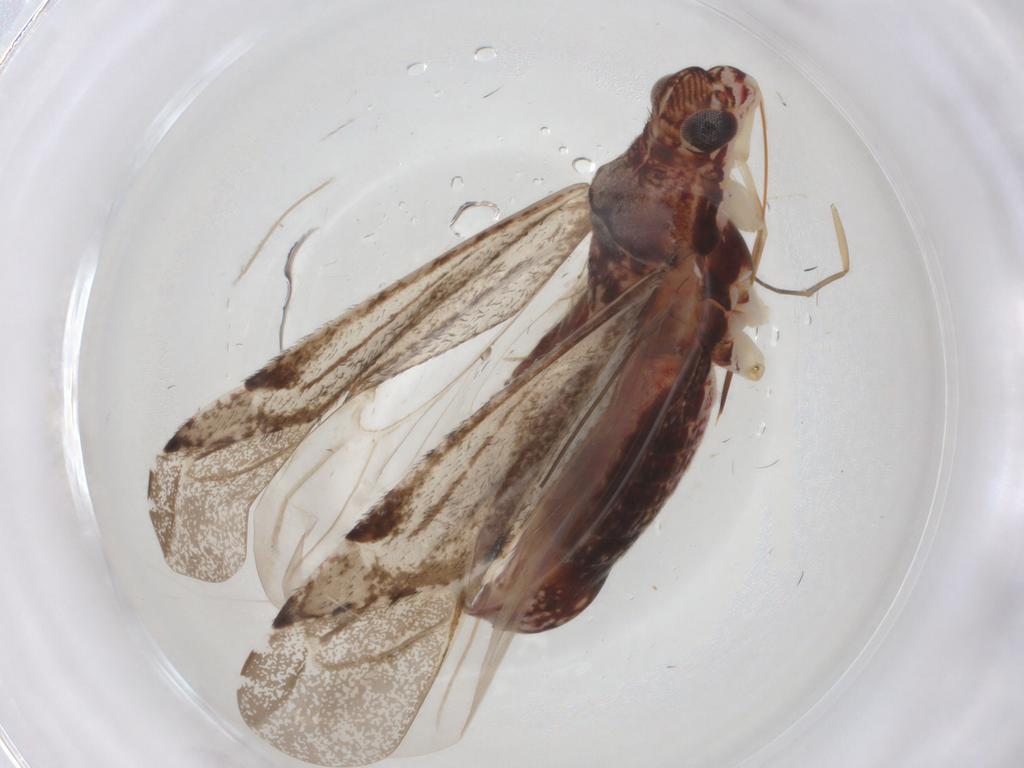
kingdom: Animalia
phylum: Arthropoda
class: Insecta
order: Hemiptera
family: Miridae
